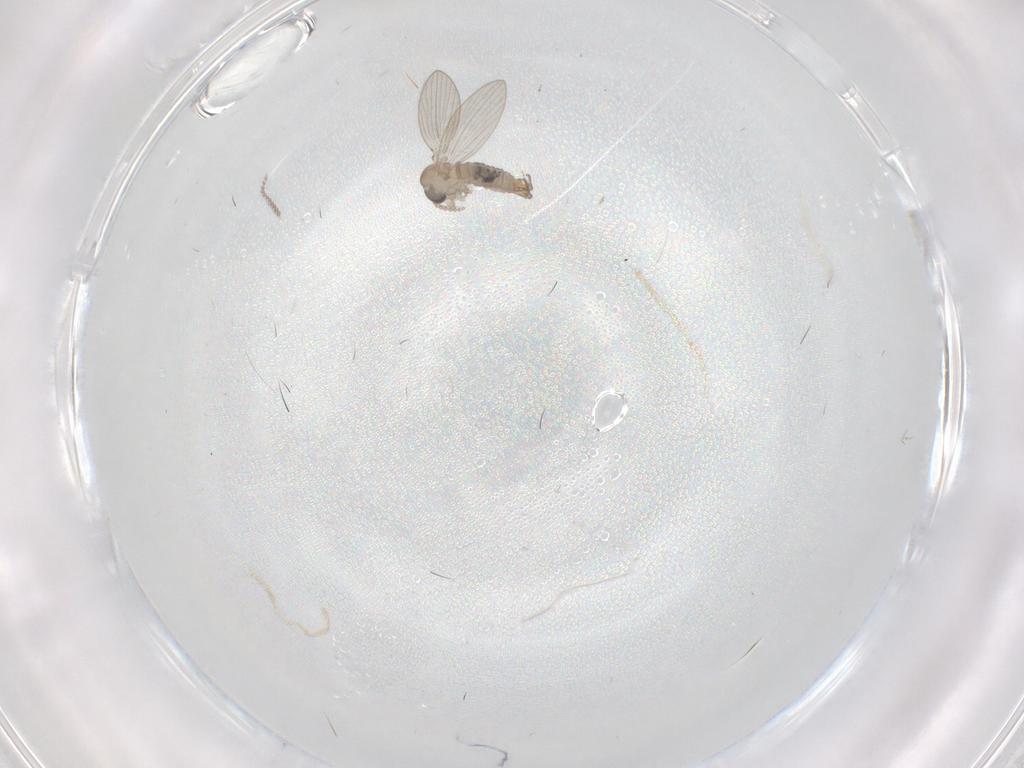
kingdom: Animalia
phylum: Arthropoda
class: Insecta
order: Diptera
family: Psychodidae
